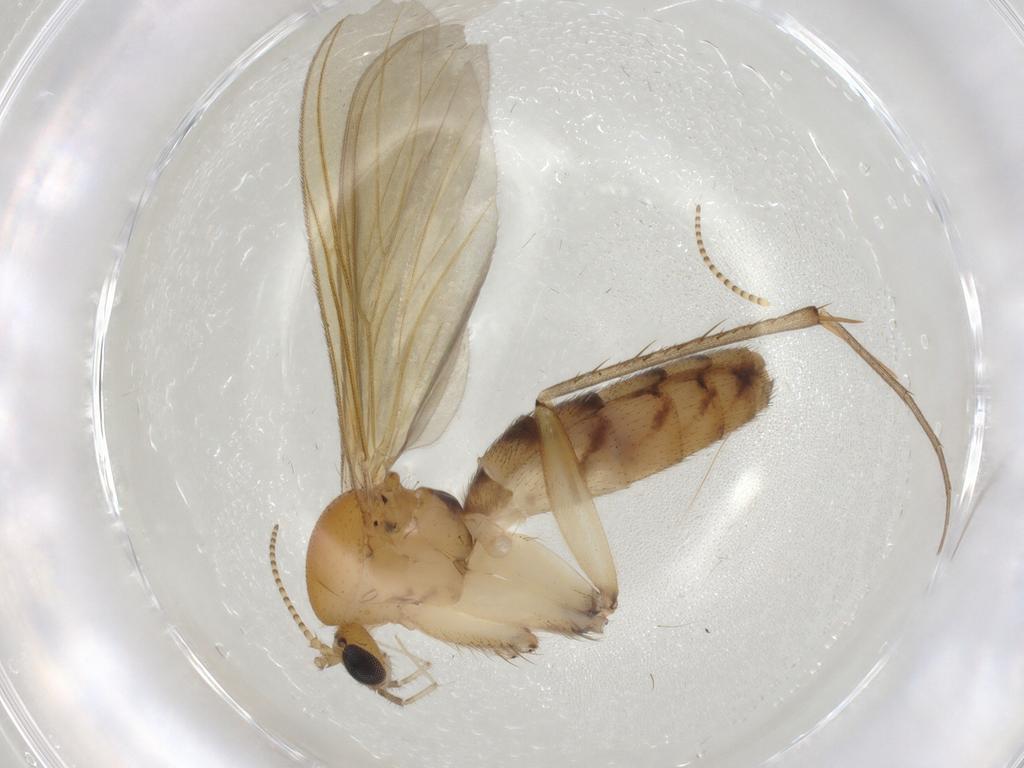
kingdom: Animalia
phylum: Arthropoda
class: Insecta
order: Diptera
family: Mycetophilidae
